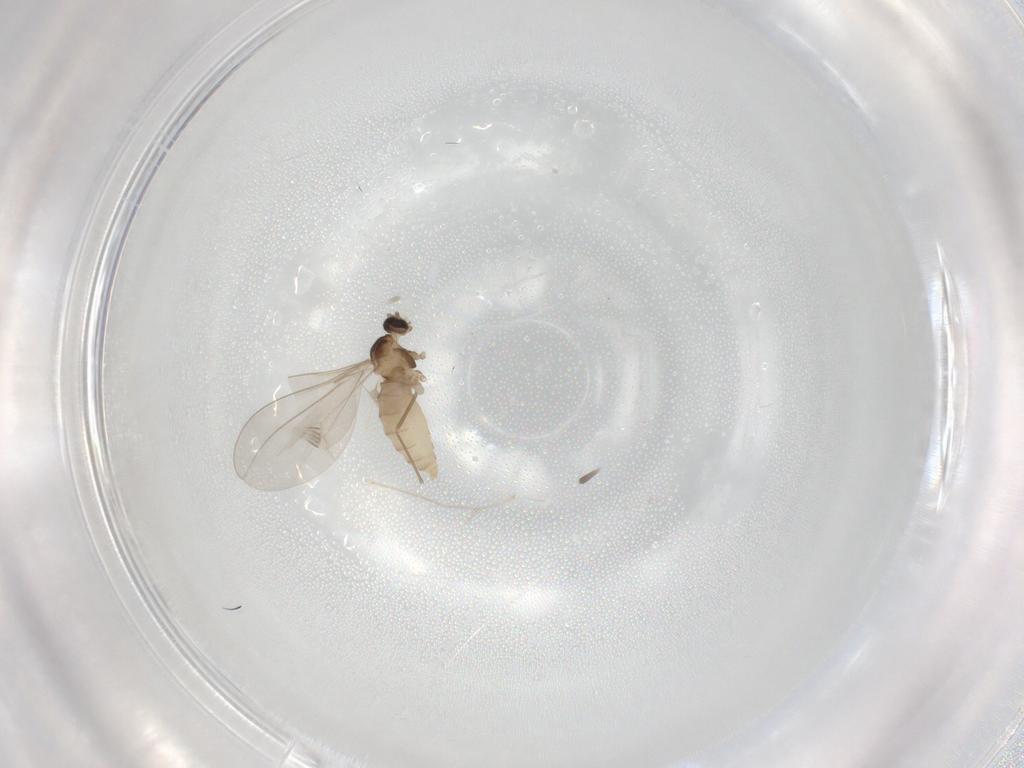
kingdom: Animalia
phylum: Arthropoda
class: Insecta
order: Diptera
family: Cecidomyiidae
